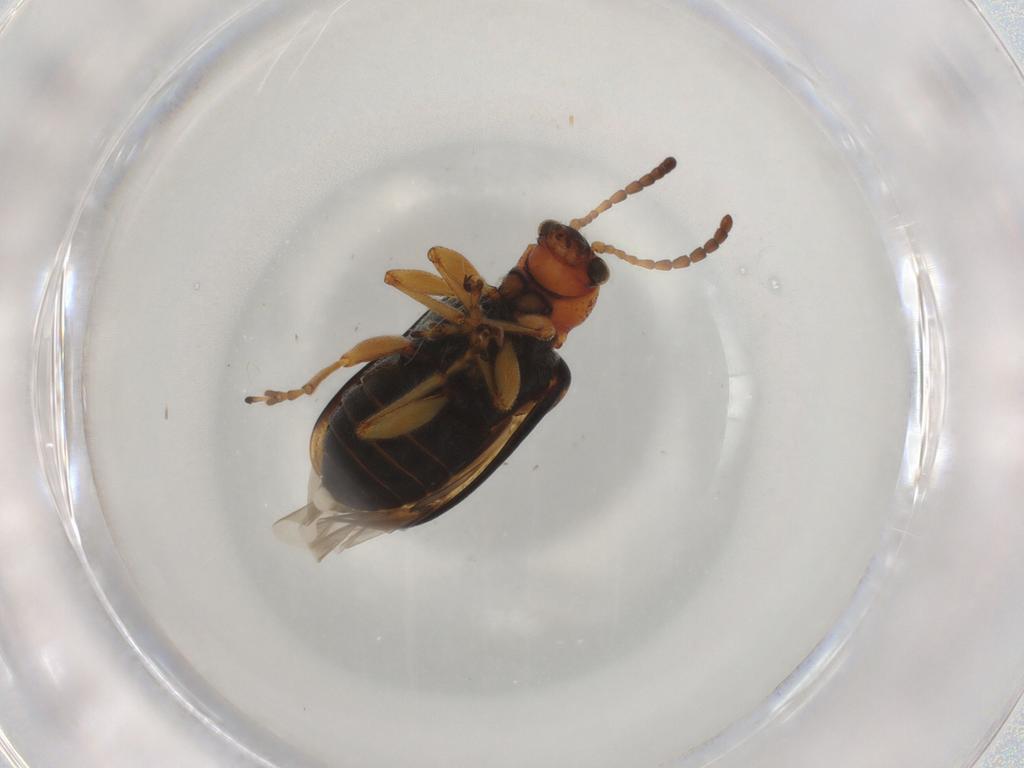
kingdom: Animalia
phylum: Arthropoda
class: Insecta
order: Coleoptera
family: Chrysomelidae
